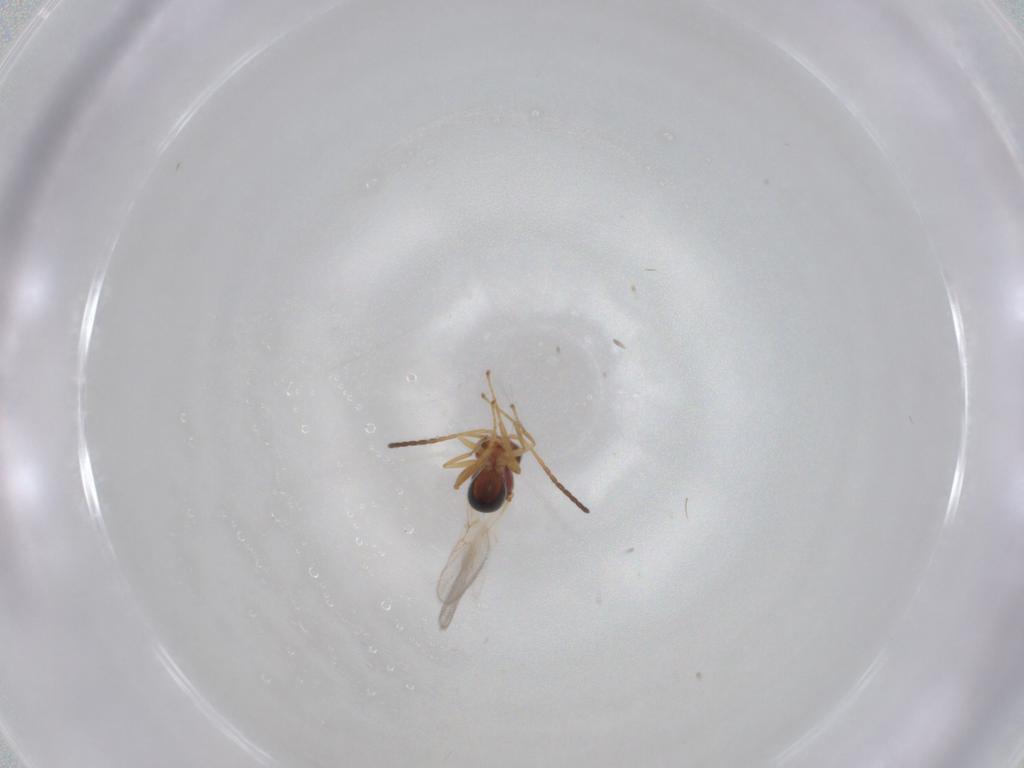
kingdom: Animalia
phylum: Arthropoda
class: Insecta
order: Hymenoptera
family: Figitidae
